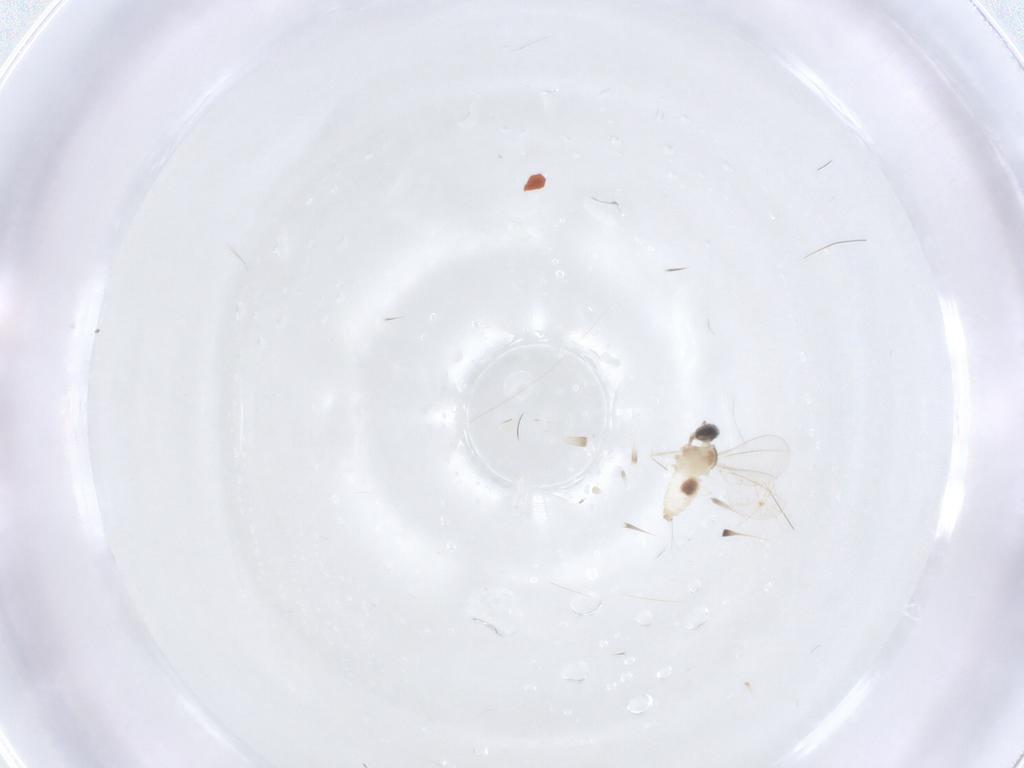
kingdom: Animalia
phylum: Arthropoda
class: Insecta
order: Diptera
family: Cecidomyiidae
